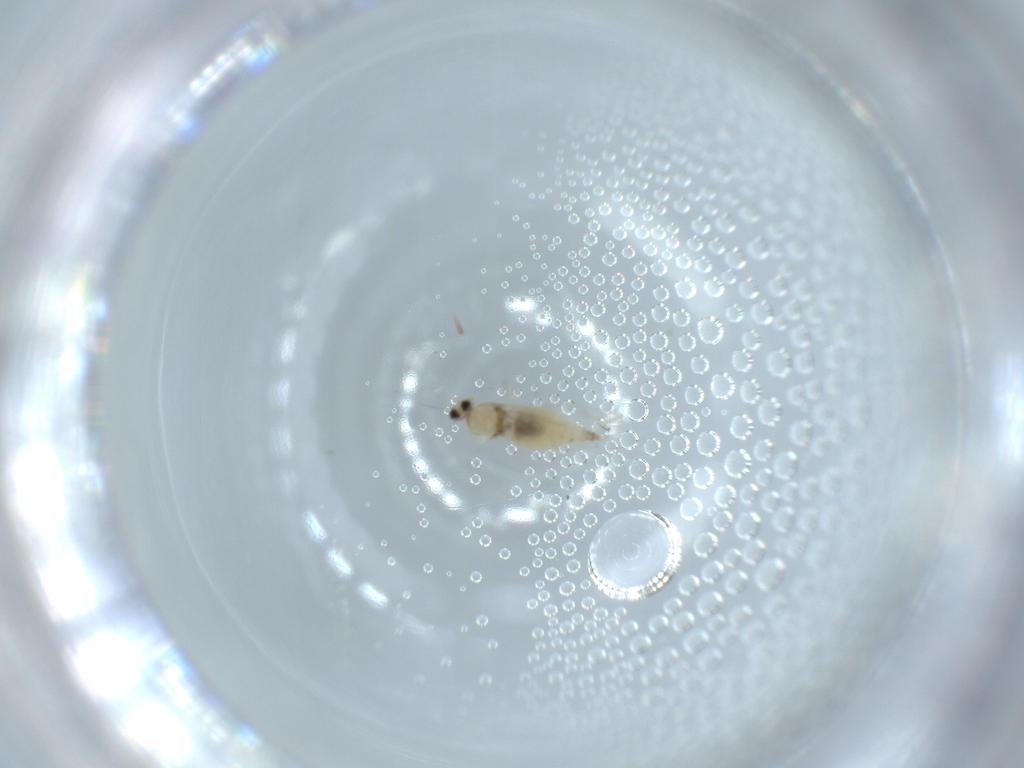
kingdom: Animalia
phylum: Arthropoda
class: Insecta
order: Diptera
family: Cecidomyiidae
